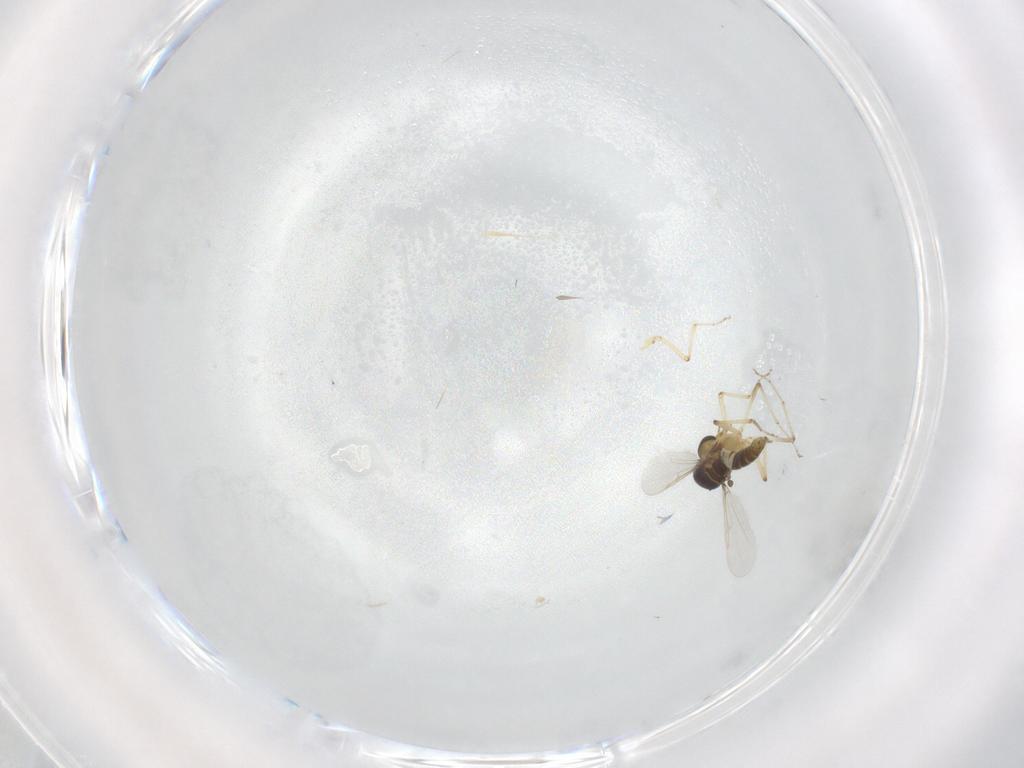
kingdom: Animalia
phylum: Arthropoda
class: Insecta
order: Diptera
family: Ceratopogonidae
